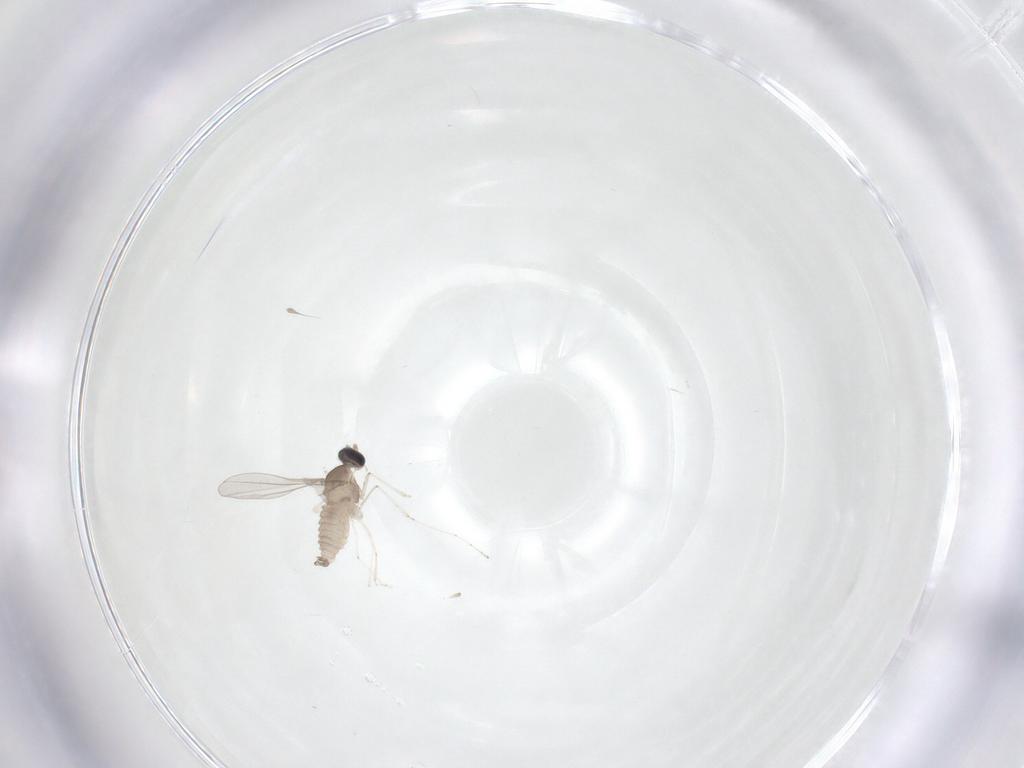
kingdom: Animalia
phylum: Arthropoda
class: Insecta
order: Diptera
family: Cecidomyiidae
